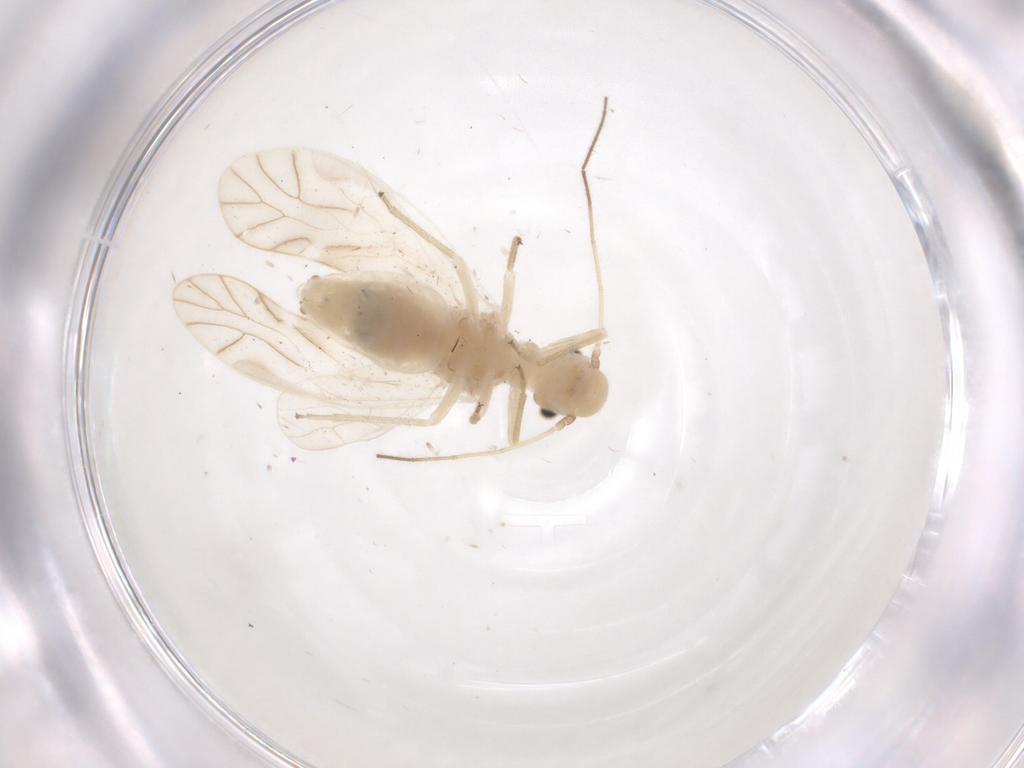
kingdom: Animalia
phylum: Arthropoda
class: Insecta
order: Psocodea
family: Caeciliusidae
